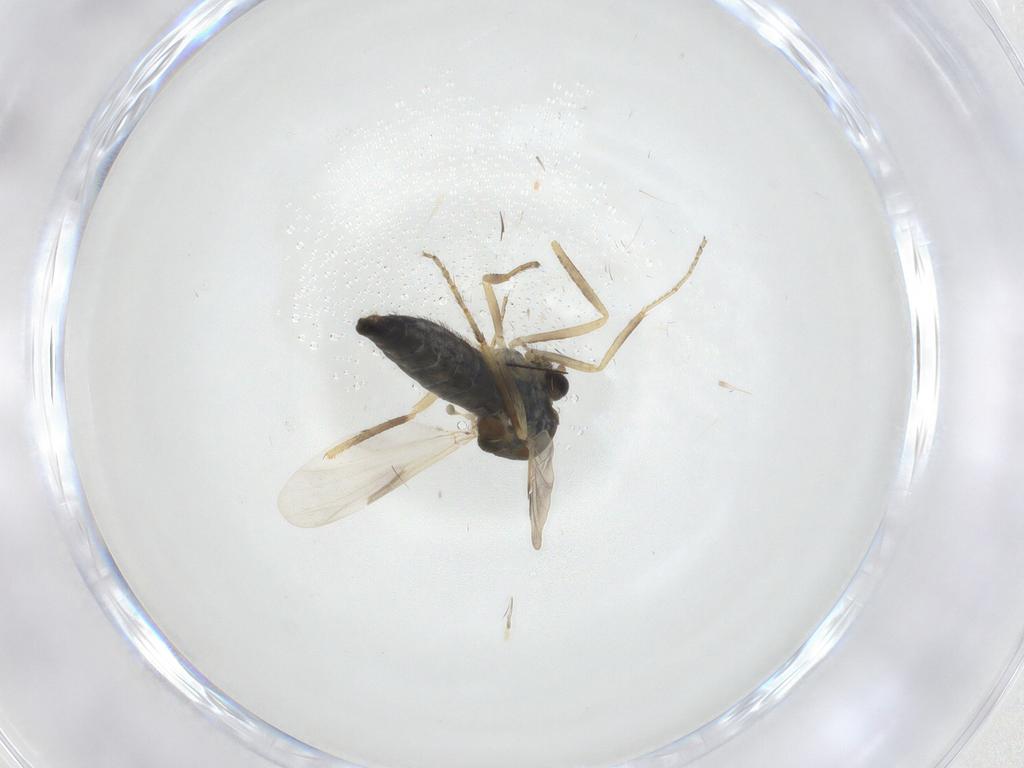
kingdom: Animalia
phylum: Arthropoda
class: Insecta
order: Diptera
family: Ceratopogonidae
